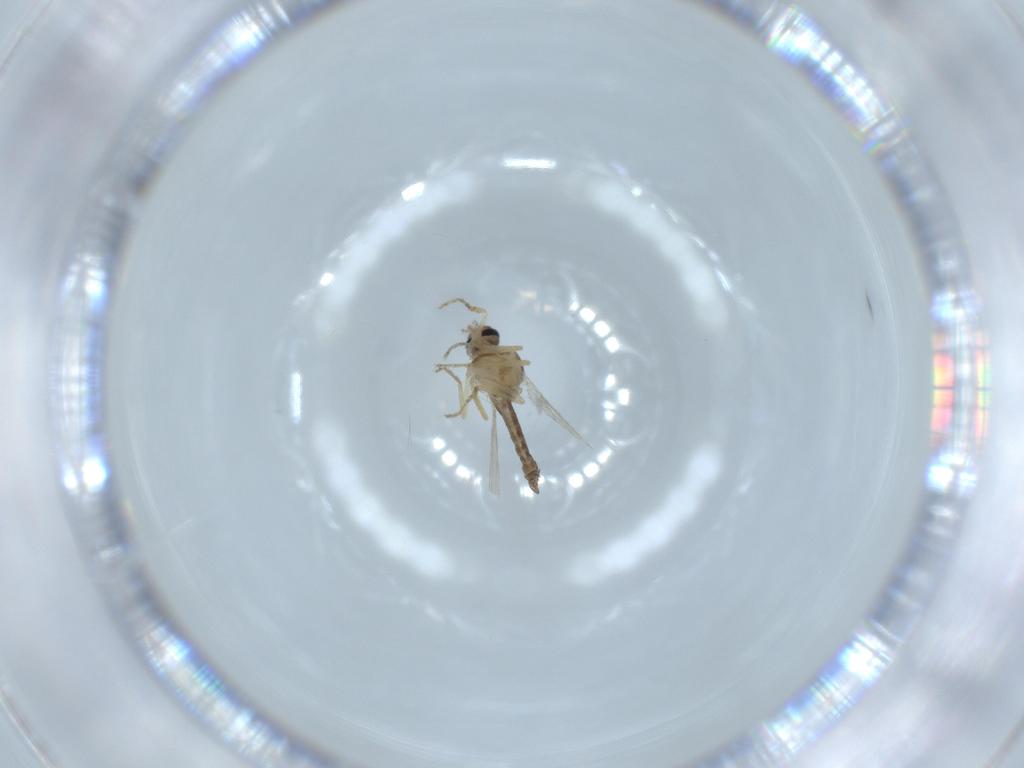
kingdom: Animalia
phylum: Arthropoda
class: Insecta
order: Diptera
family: Ceratopogonidae
